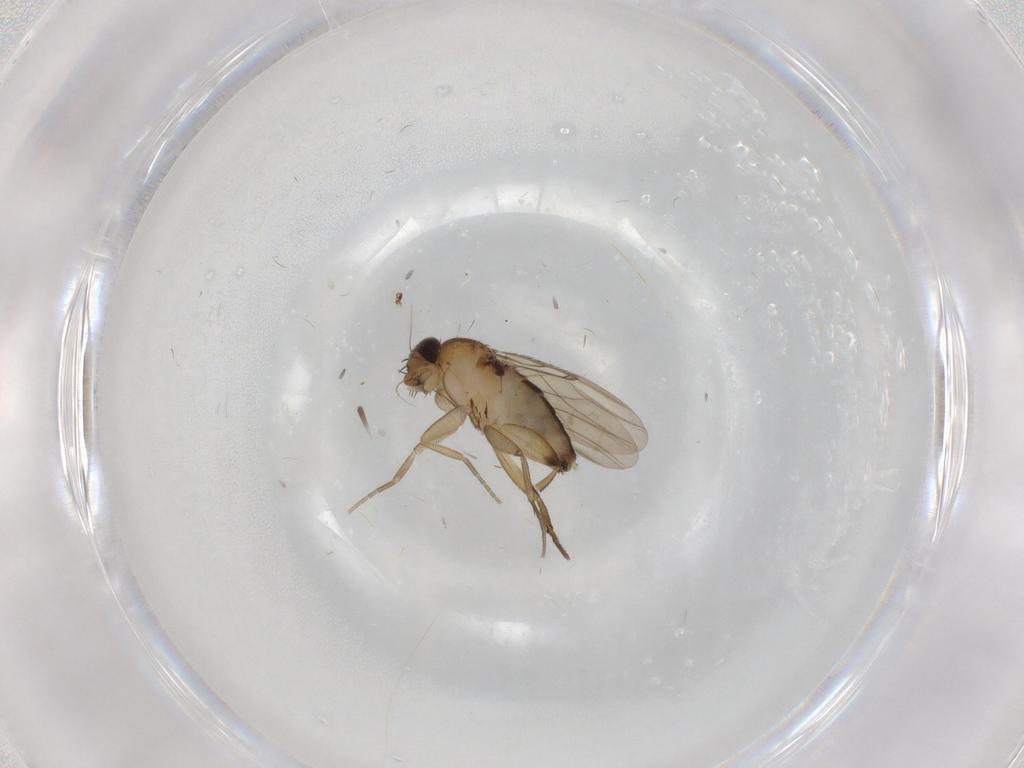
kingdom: Animalia
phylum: Arthropoda
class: Insecta
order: Diptera
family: Phoridae
